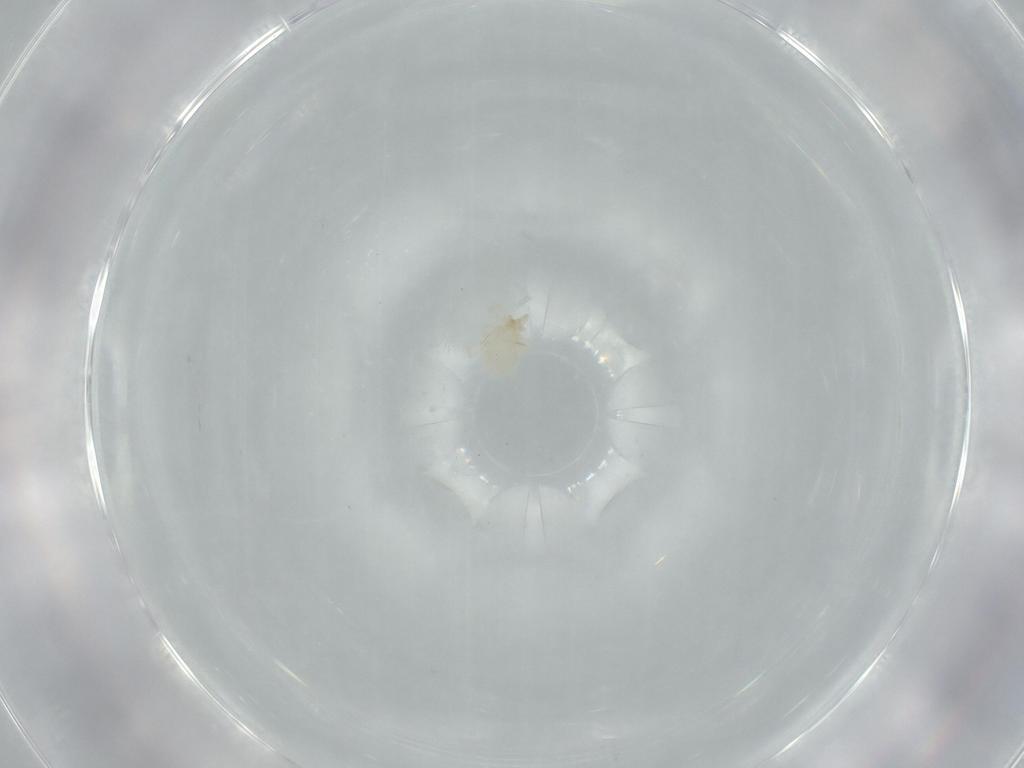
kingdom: Animalia
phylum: Arthropoda
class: Arachnida
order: Trombidiformes
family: Erythraeidae
